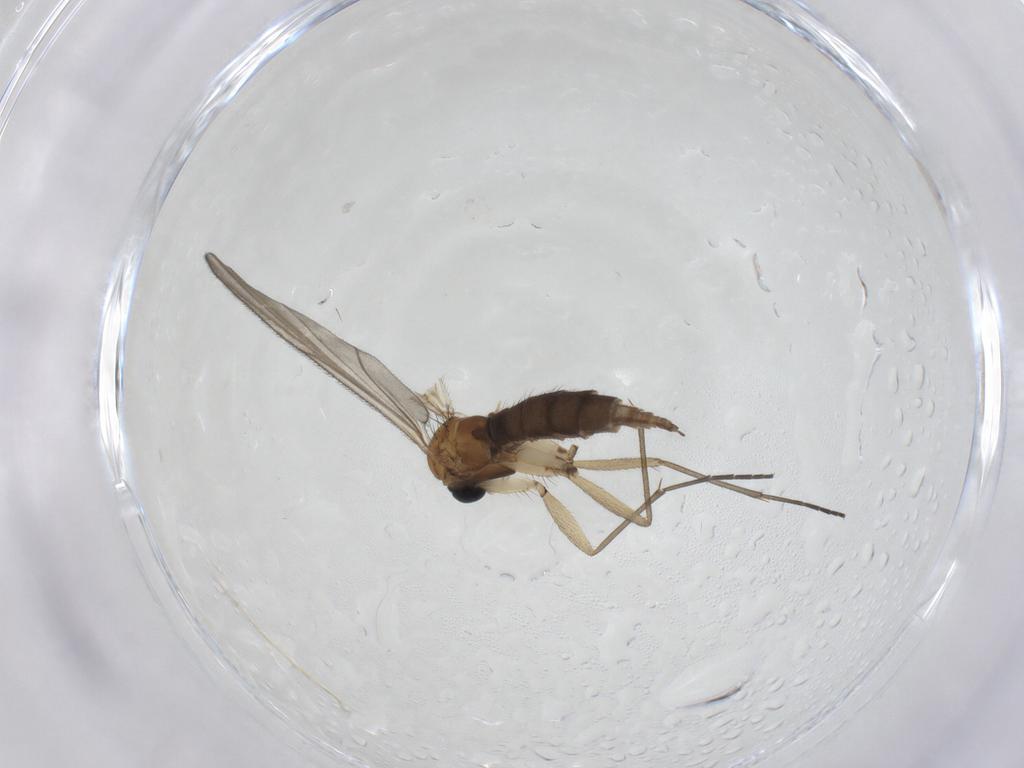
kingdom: Animalia
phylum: Arthropoda
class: Insecta
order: Diptera
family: Sciaridae
